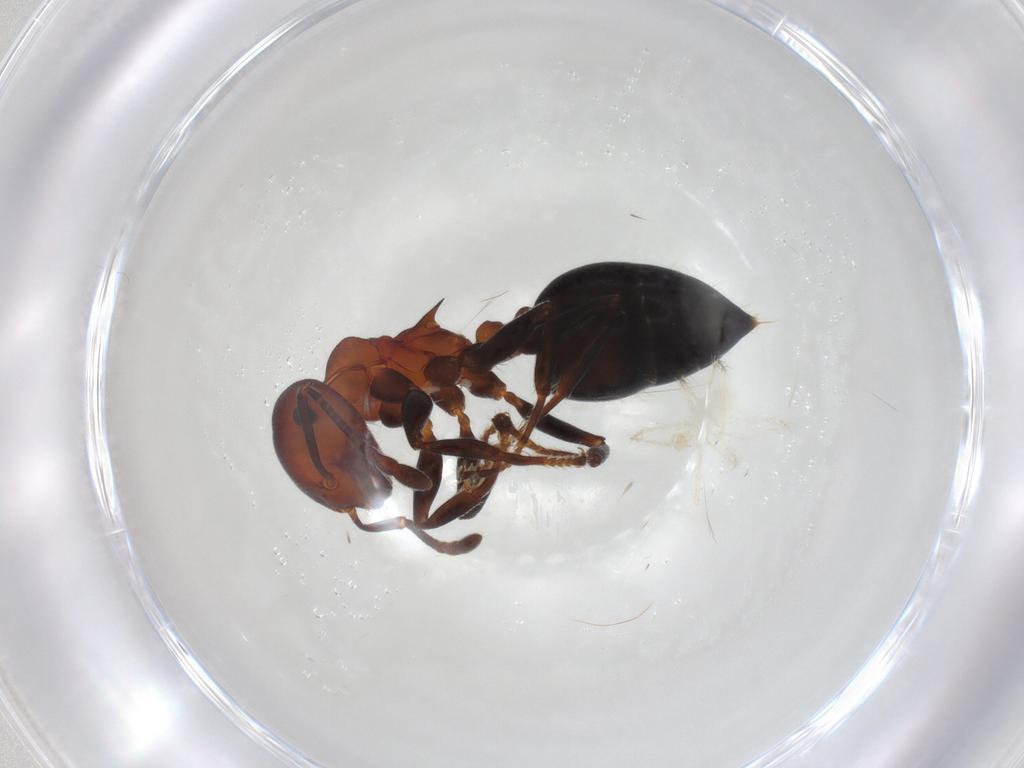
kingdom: Animalia
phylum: Arthropoda
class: Insecta
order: Hymenoptera
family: Formicidae
